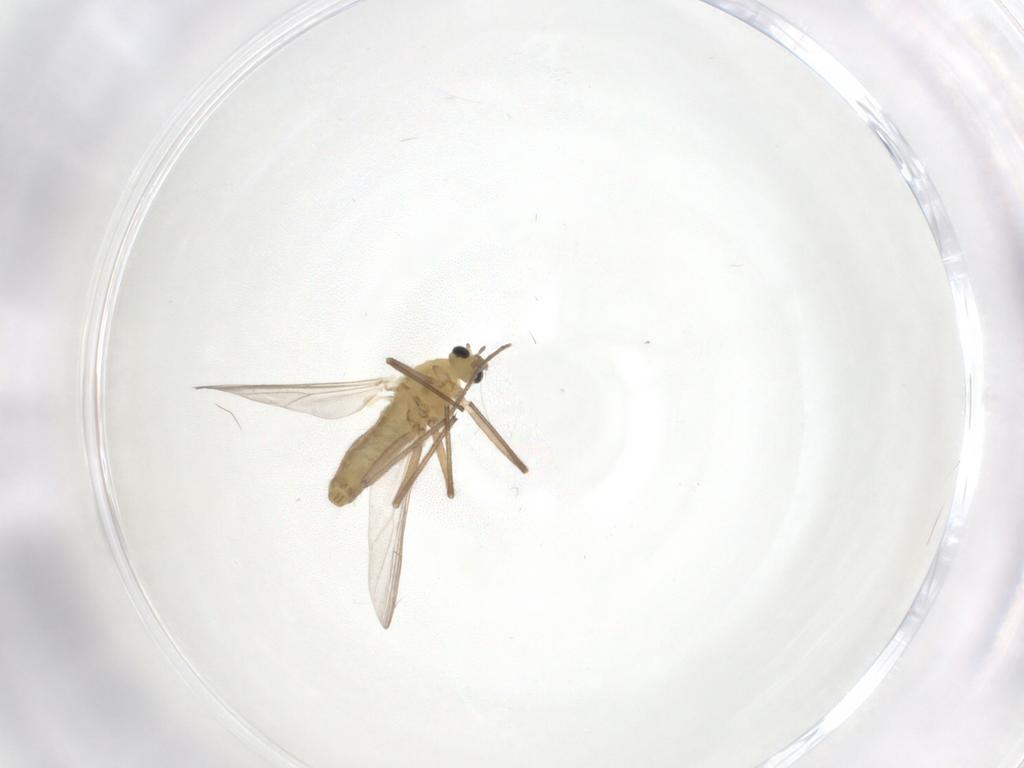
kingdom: Animalia
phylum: Arthropoda
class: Insecta
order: Diptera
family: Chironomidae
